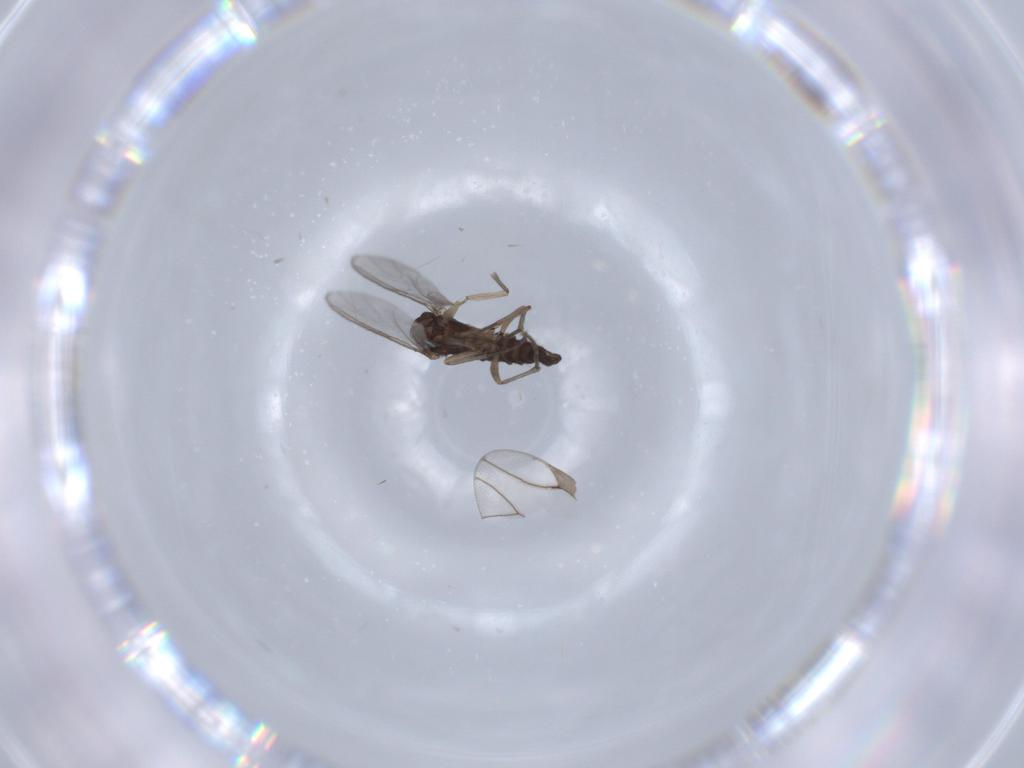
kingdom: Animalia
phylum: Arthropoda
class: Insecta
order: Diptera
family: Sciaridae
